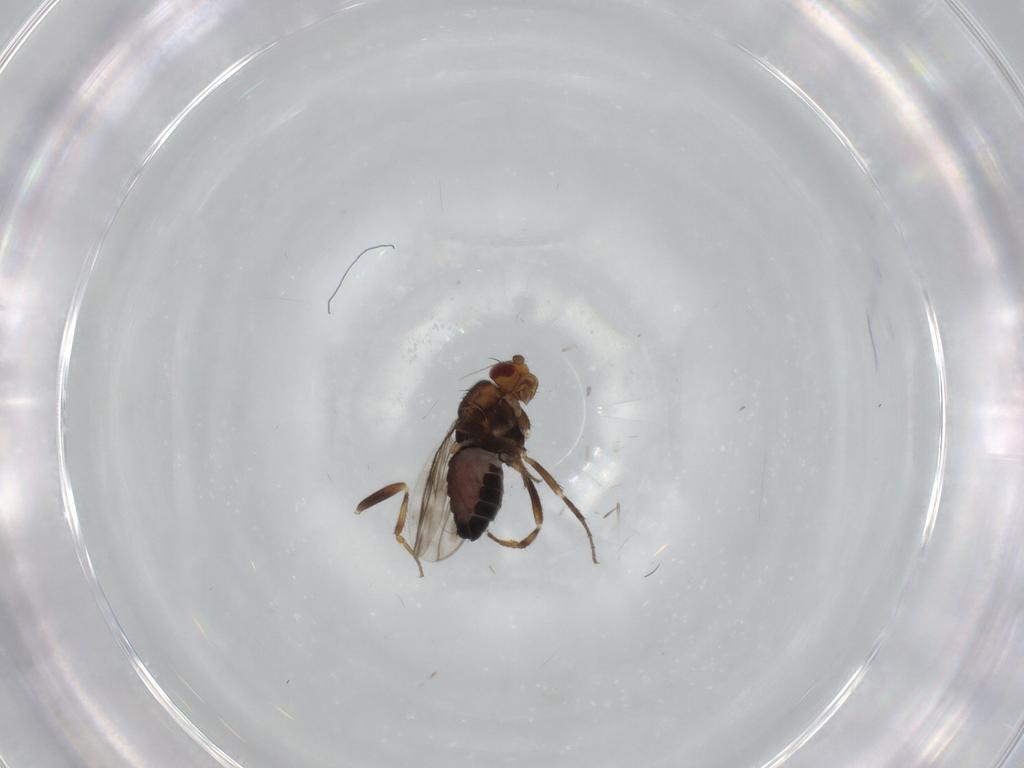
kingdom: Animalia
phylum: Arthropoda
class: Insecta
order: Diptera
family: Sphaeroceridae
